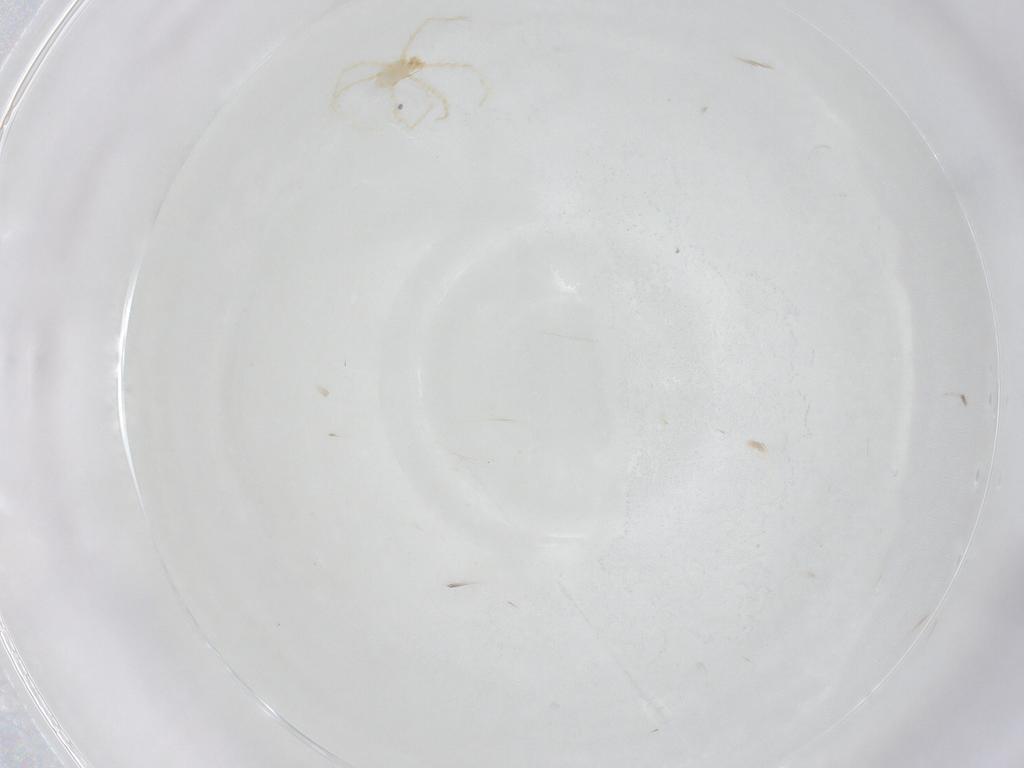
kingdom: Animalia
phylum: Arthropoda
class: Arachnida
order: Trombidiformes
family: Erythraeidae
